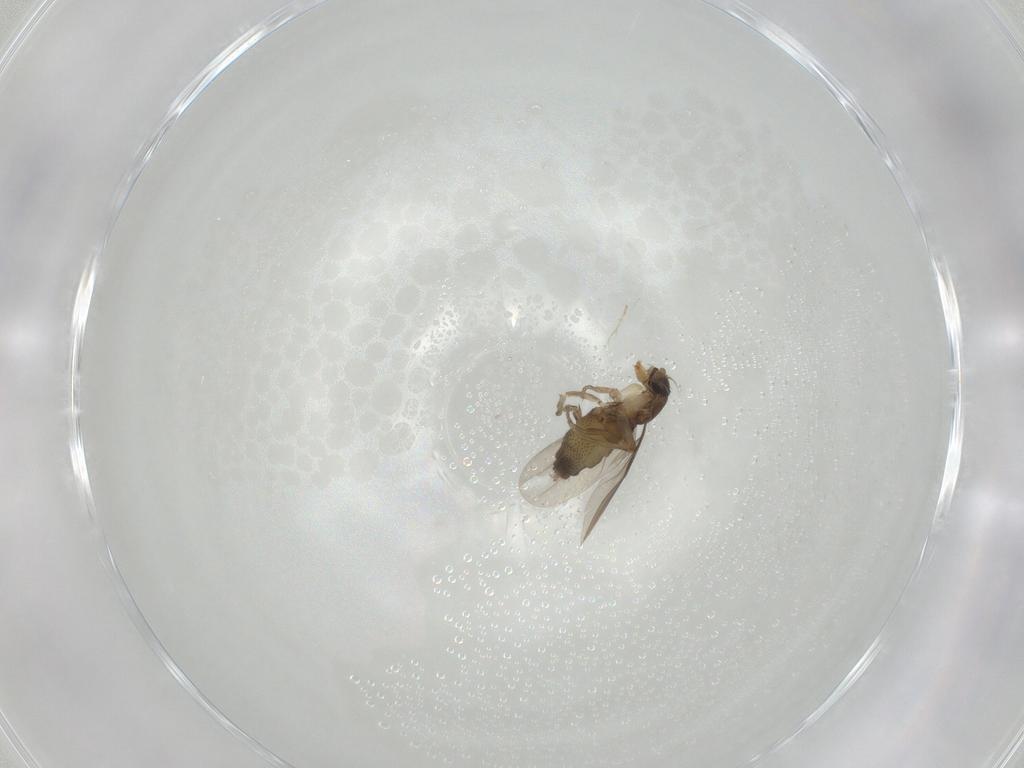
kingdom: Animalia
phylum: Arthropoda
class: Insecta
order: Diptera
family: Phoridae
